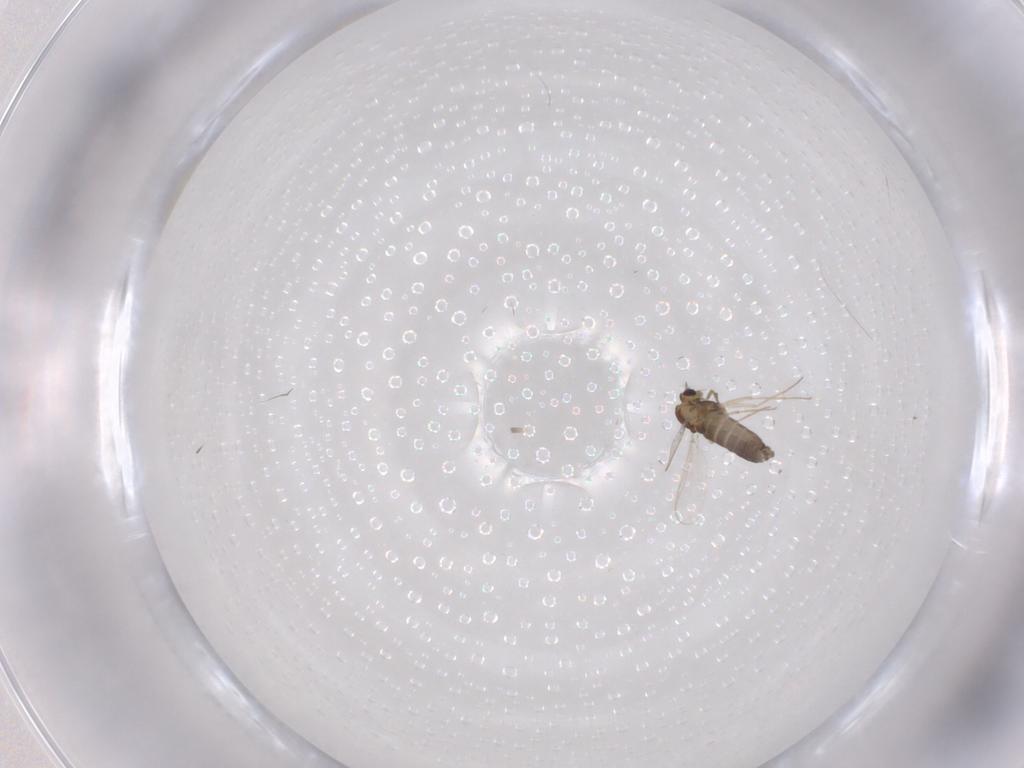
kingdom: Animalia
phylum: Arthropoda
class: Insecta
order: Diptera
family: Chironomidae
